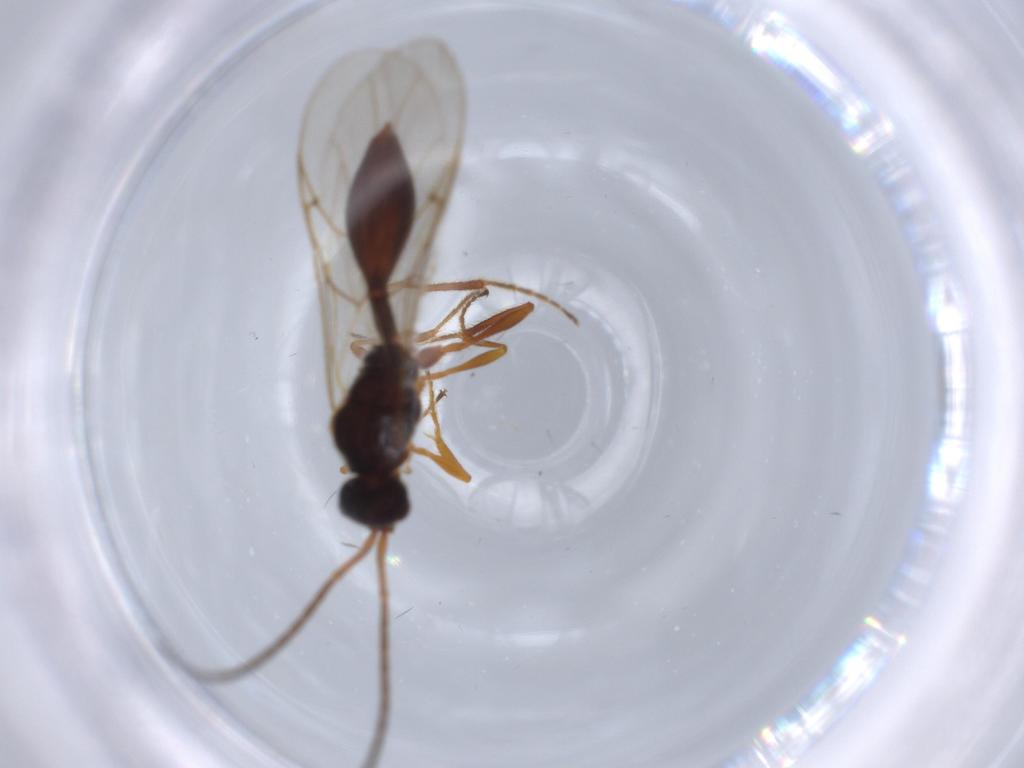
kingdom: Animalia
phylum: Arthropoda
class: Insecta
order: Hymenoptera
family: Diapriidae
